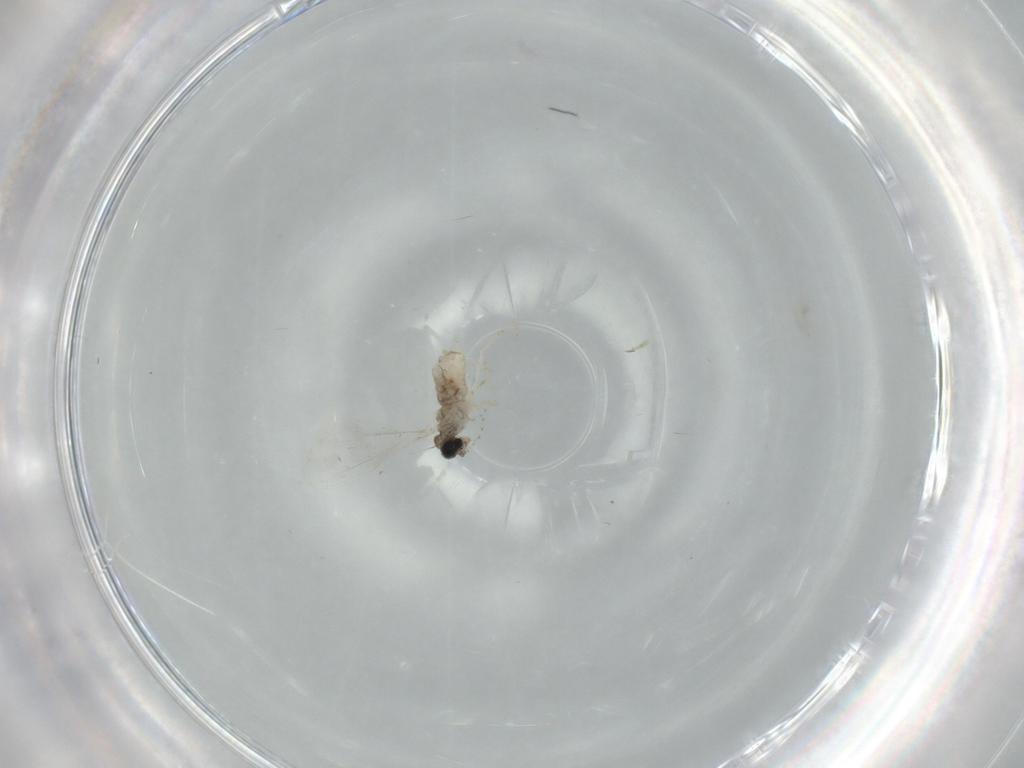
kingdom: Animalia
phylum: Arthropoda
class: Insecta
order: Diptera
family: Cecidomyiidae
